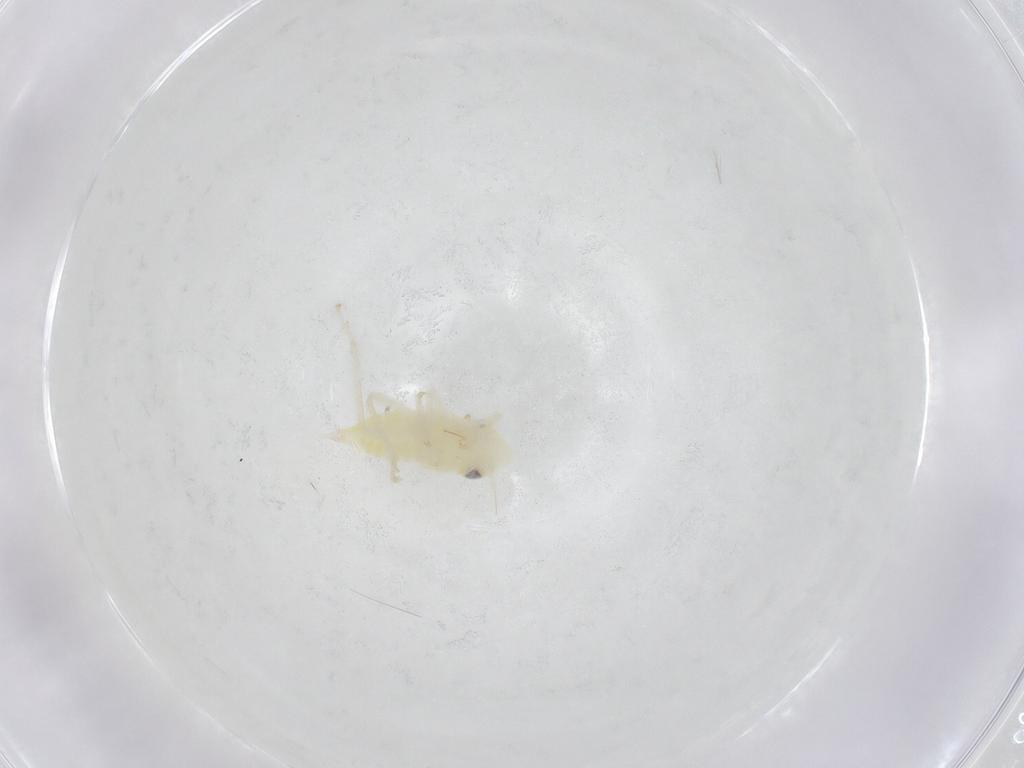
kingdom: Animalia
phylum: Arthropoda
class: Insecta
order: Hemiptera
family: Cicadellidae
